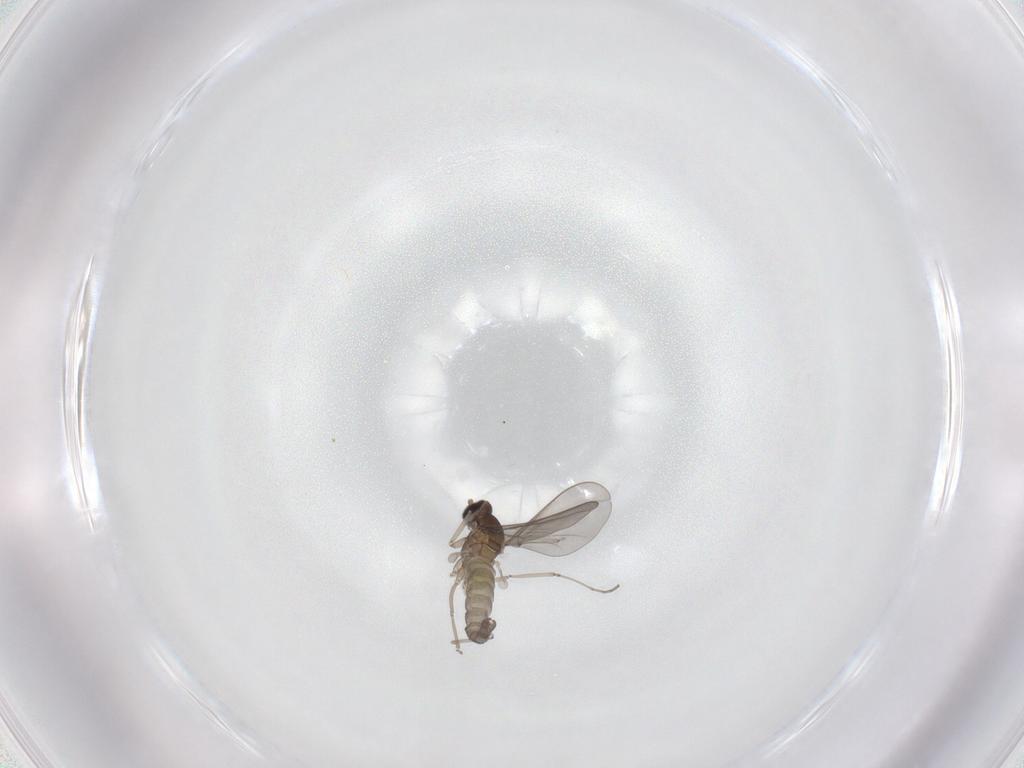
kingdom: Animalia
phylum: Arthropoda
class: Insecta
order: Diptera
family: Cecidomyiidae
